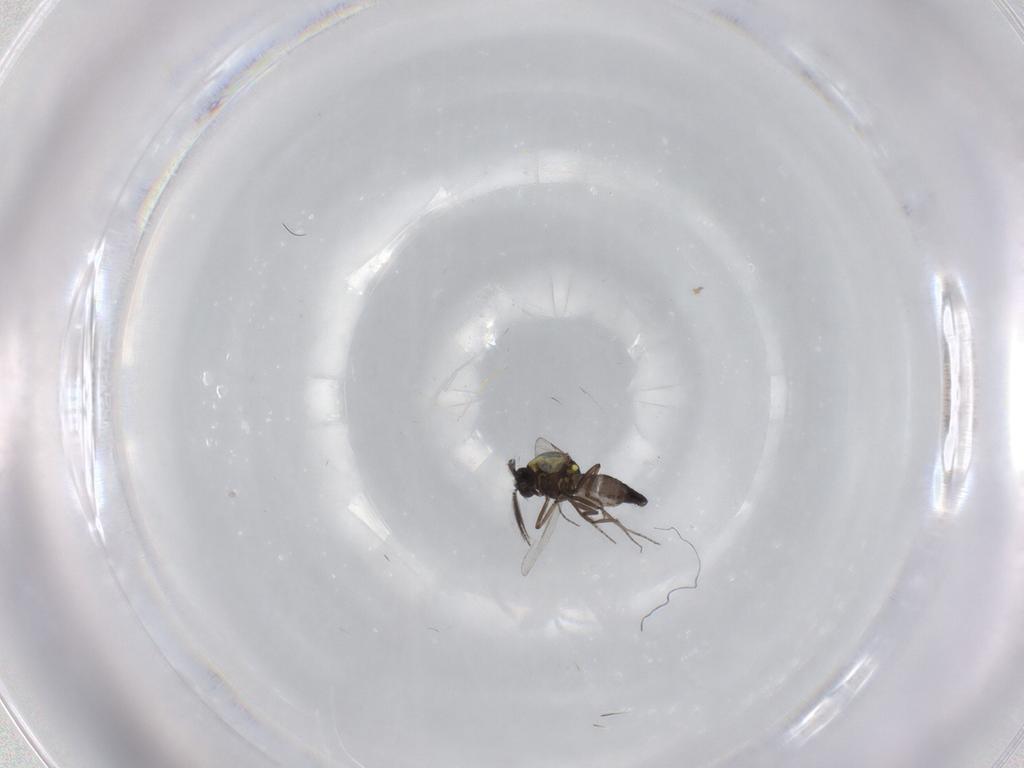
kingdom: Animalia
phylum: Arthropoda
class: Insecta
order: Diptera
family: Ceratopogonidae
